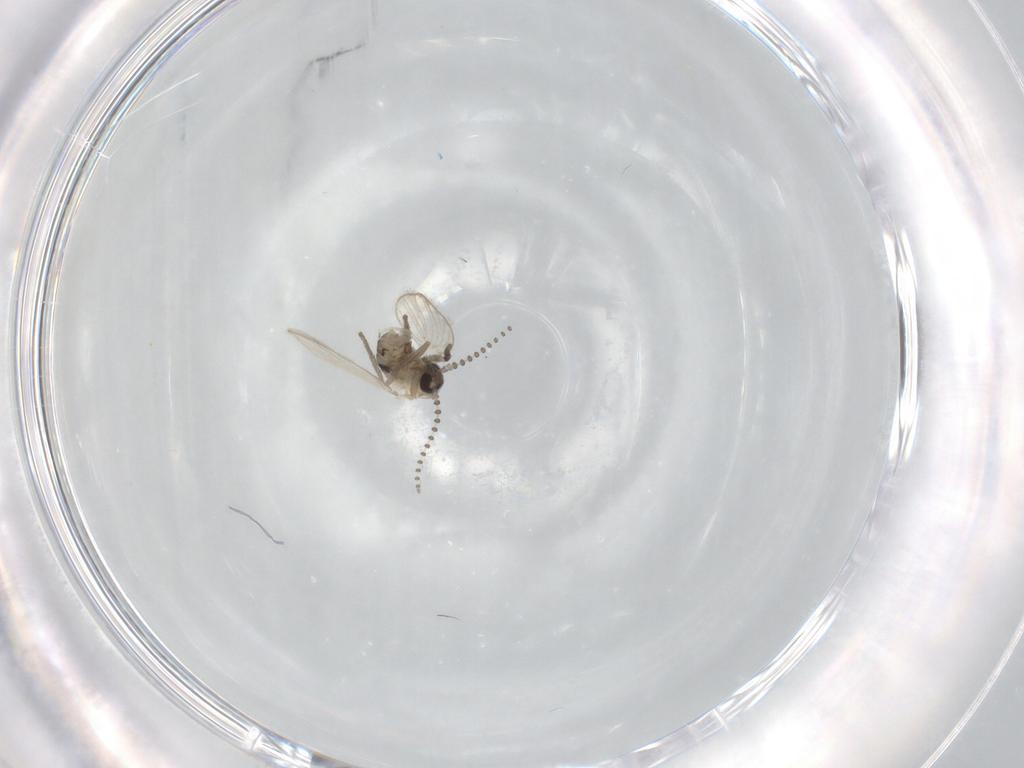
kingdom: Animalia
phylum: Arthropoda
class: Insecta
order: Diptera
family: Psychodidae
